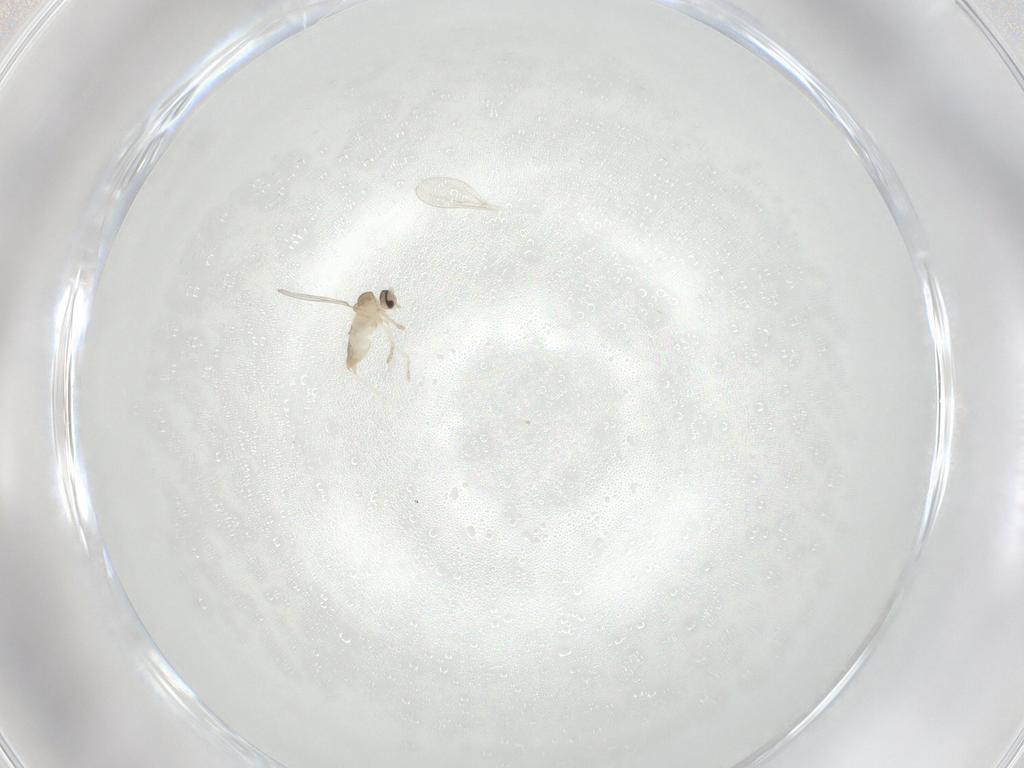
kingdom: Animalia
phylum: Arthropoda
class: Insecta
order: Diptera
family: Cecidomyiidae
